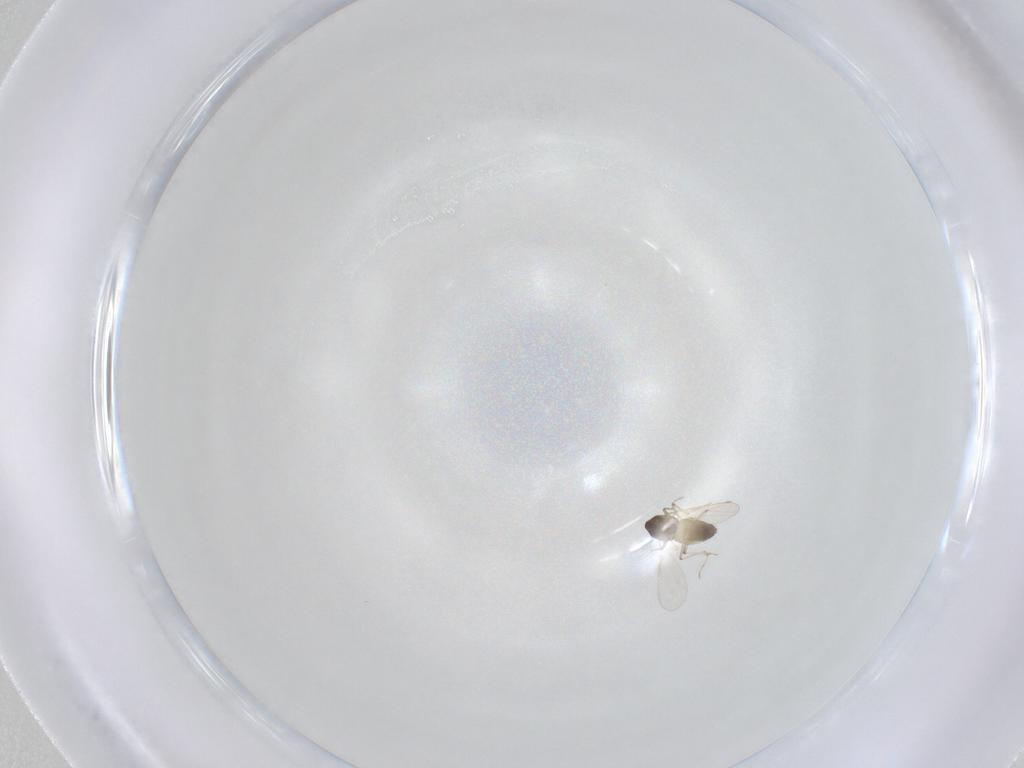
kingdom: Animalia
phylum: Arthropoda
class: Insecta
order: Diptera
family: Chironomidae
